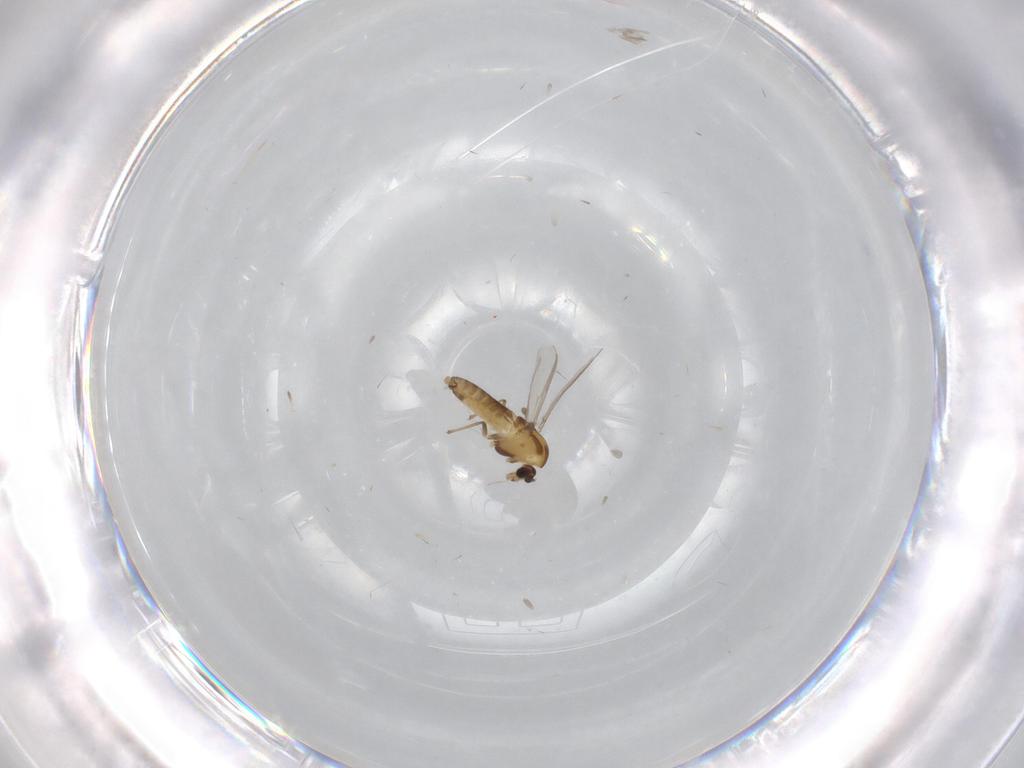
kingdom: Animalia
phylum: Arthropoda
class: Insecta
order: Diptera
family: Chironomidae
